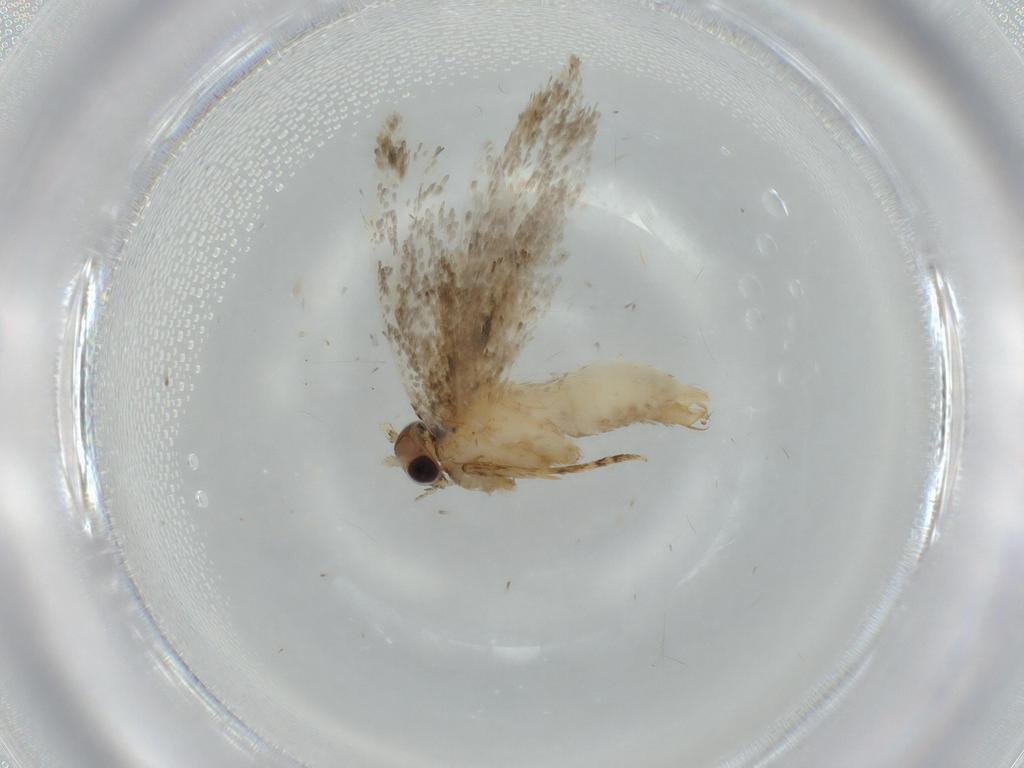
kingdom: Animalia
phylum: Arthropoda
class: Insecta
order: Lepidoptera
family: Tineidae
